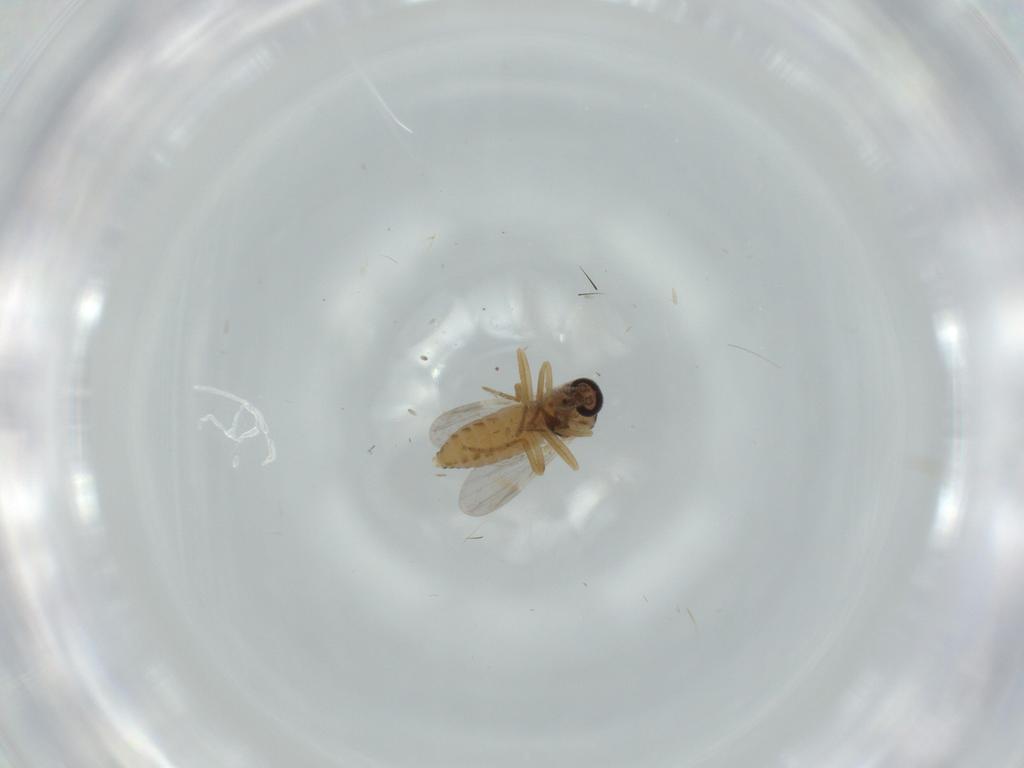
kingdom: Animalia
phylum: Arthropoda
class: Insecta
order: Diptera
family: Ceratopogonidae
